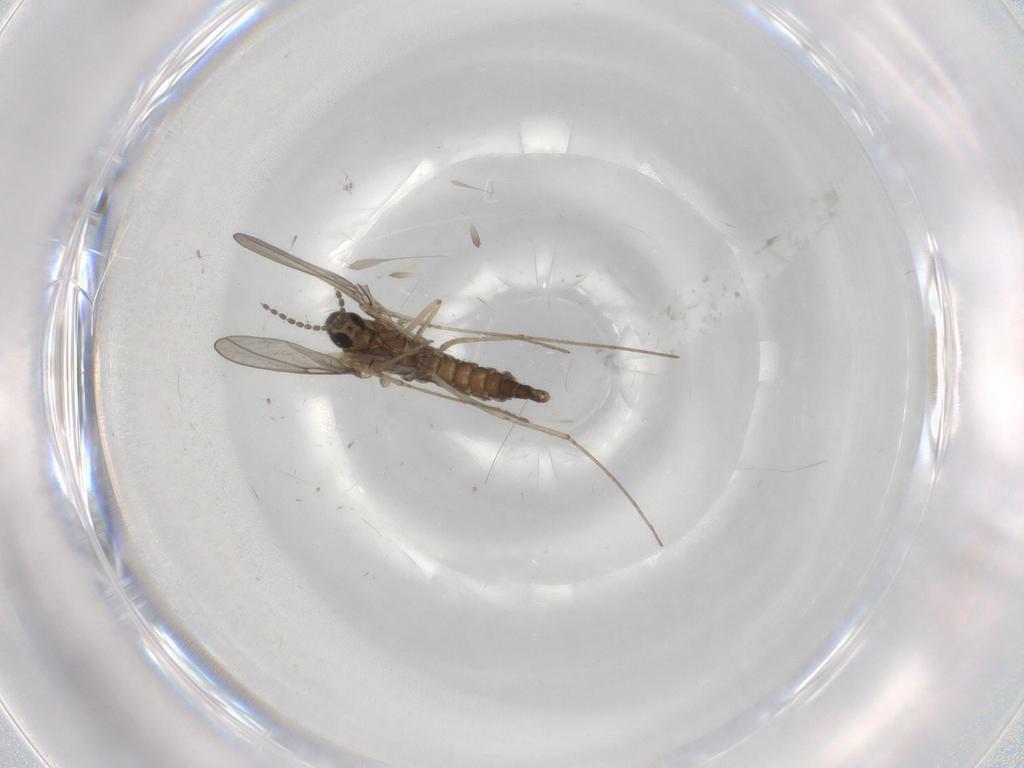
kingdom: Animalia
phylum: Arthropoda
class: Insecta
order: Diptera
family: Cecidomyiidae
